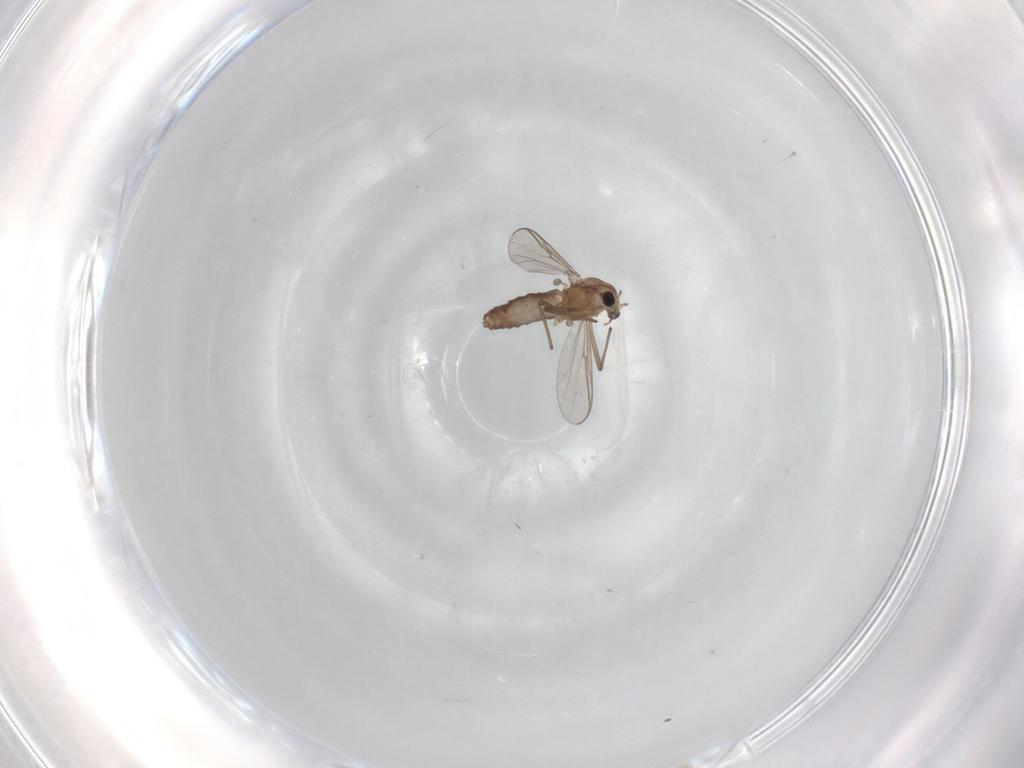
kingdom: Animalia
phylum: Arthropoda
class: Insecta
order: Diptera
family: Chironomidae
